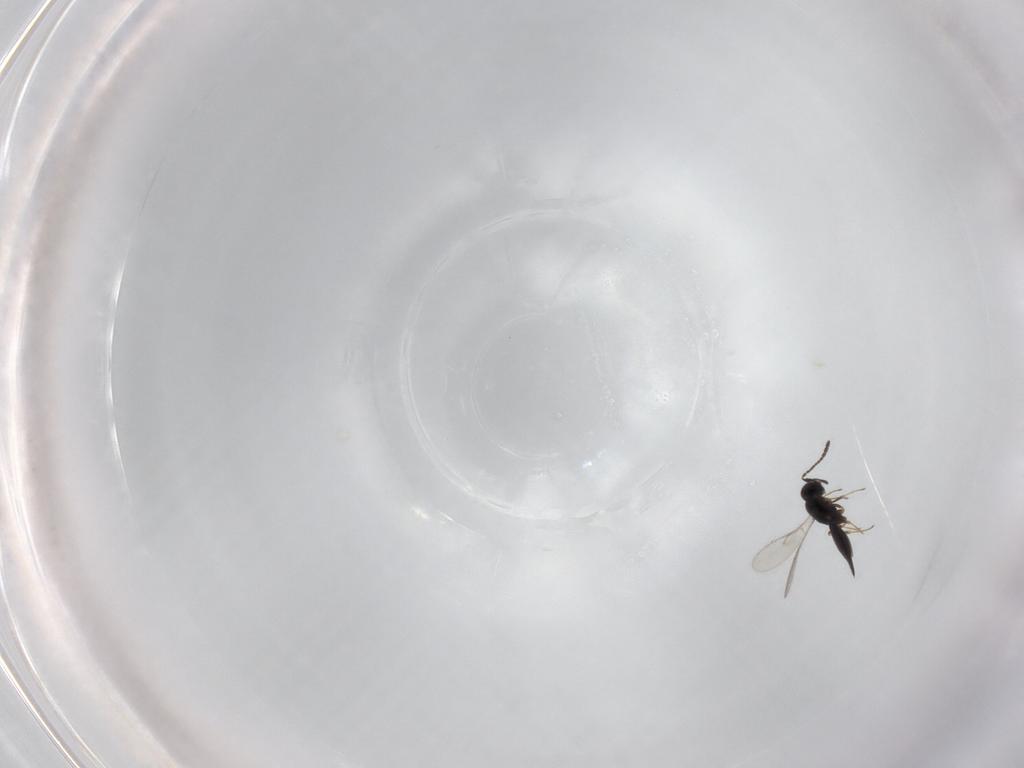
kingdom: Animalia
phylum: Arthropoda
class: Insecta
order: Hymenoptera
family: Scelionidae
